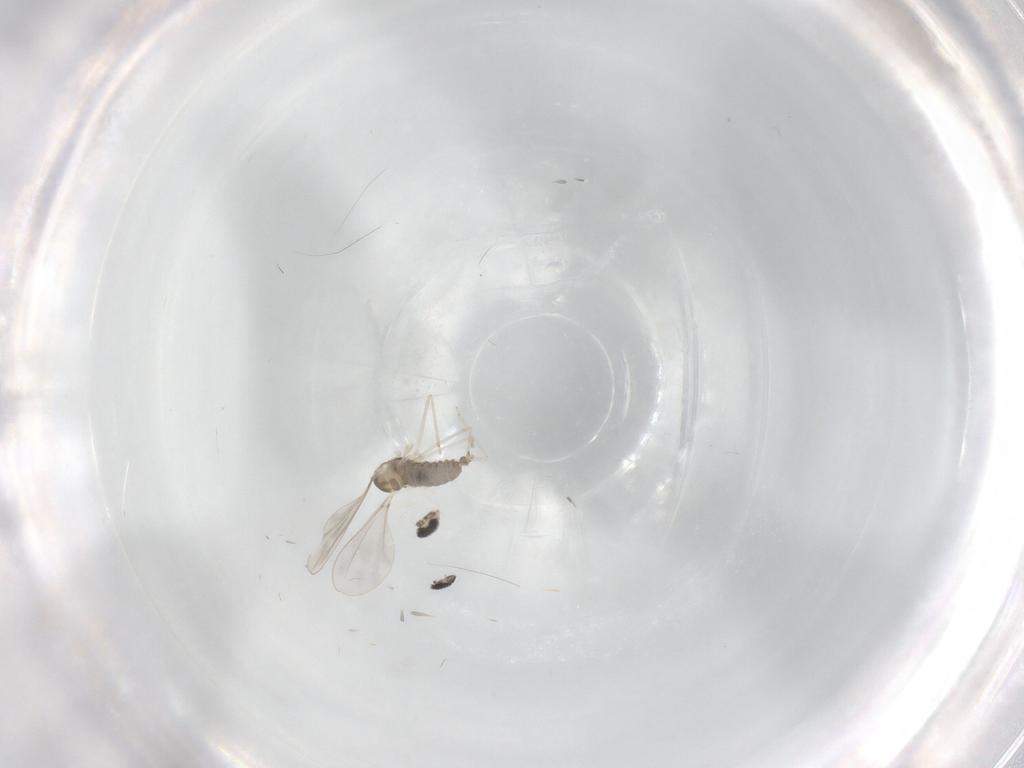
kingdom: Animalia
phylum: Arthropoda
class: Insecta
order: Diptera
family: Cecidomyiidae
